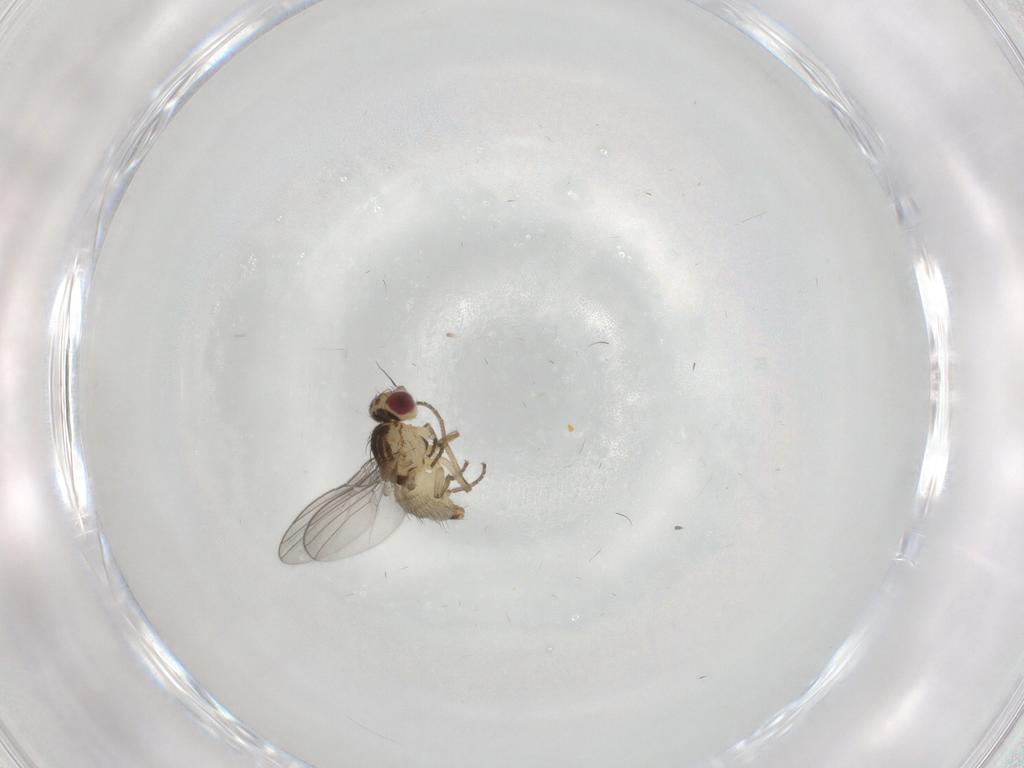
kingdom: Animalia
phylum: Arthropoda
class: Insecta
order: Diptera
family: Agromyzidae
